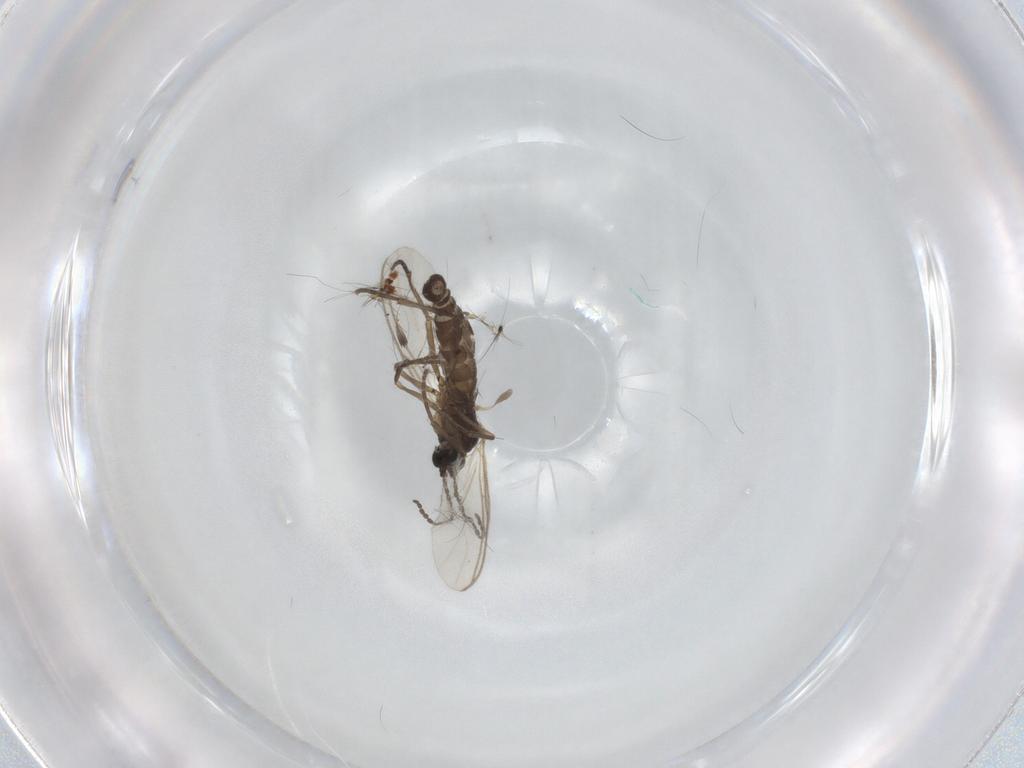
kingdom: Animalia
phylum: Arthropoda
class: Insecta
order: Diptera
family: Chironomidae
